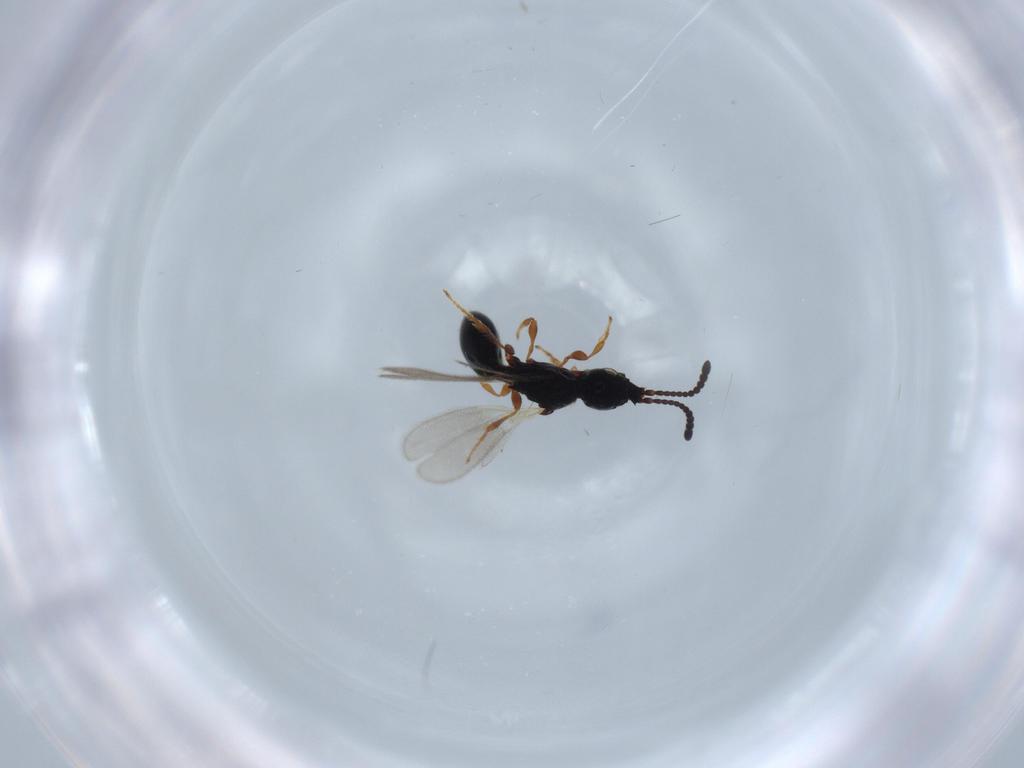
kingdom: Animalia
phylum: Arthropoda
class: Insecta
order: Hymenoptera
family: Diapriidae
